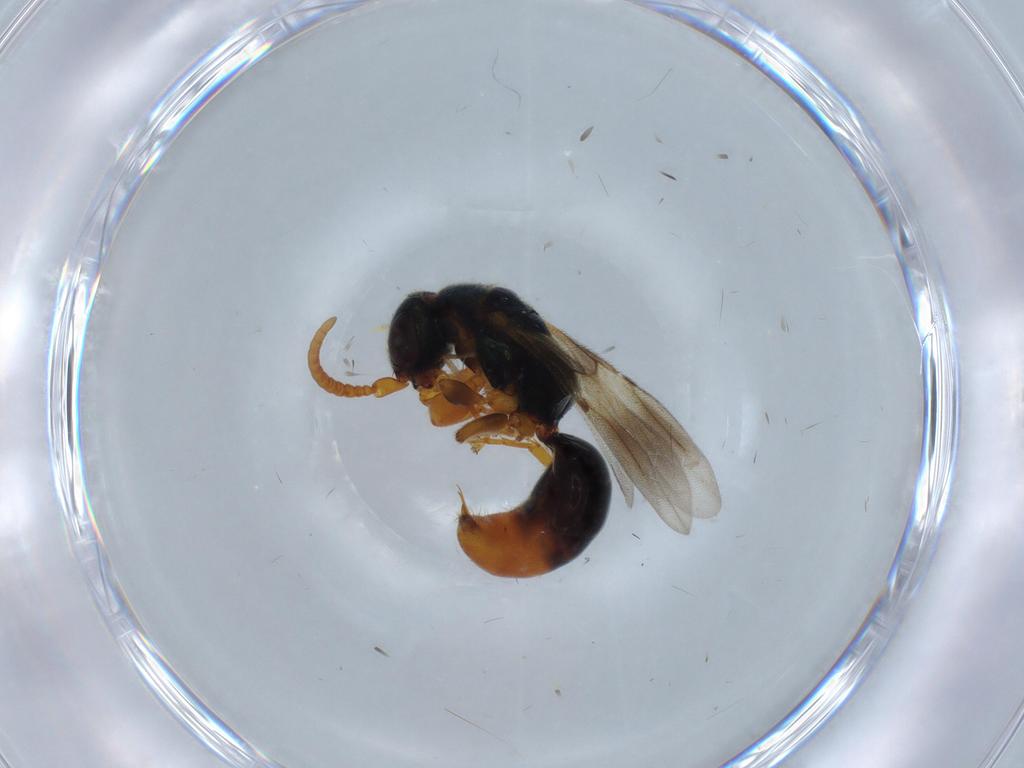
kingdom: Animalia
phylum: Arthropoda
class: Insecta
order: Hymenoptera
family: Bethylidae
